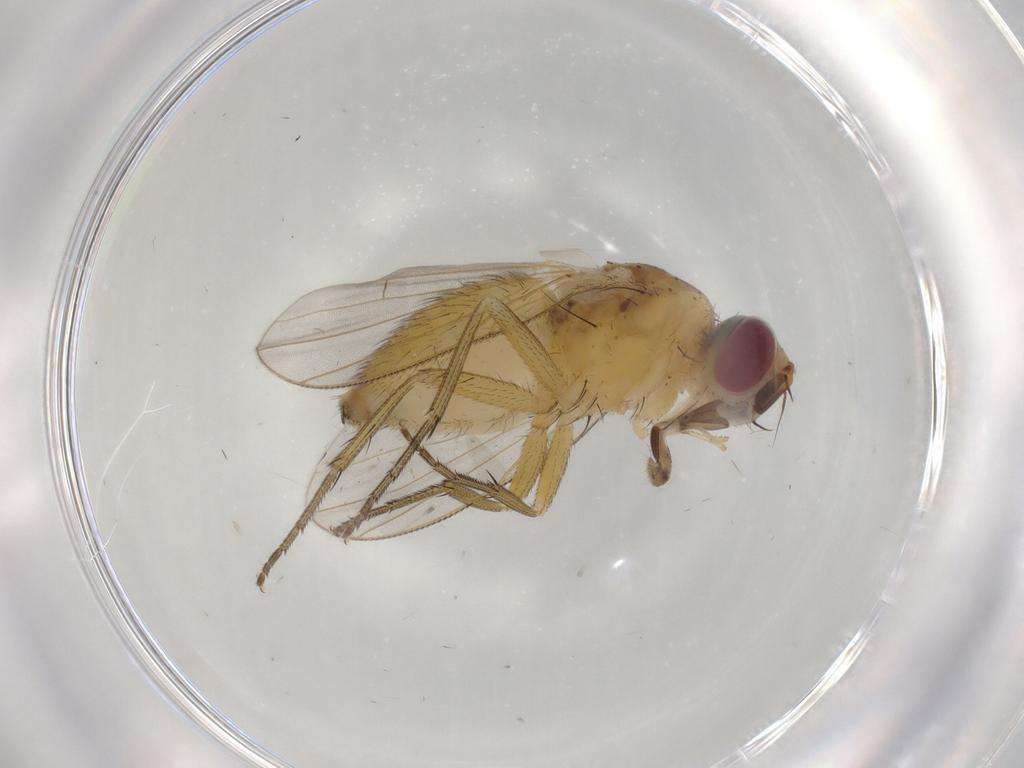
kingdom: Animalia
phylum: Arthropoda
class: Insecta
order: Diptera
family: Muscidae
